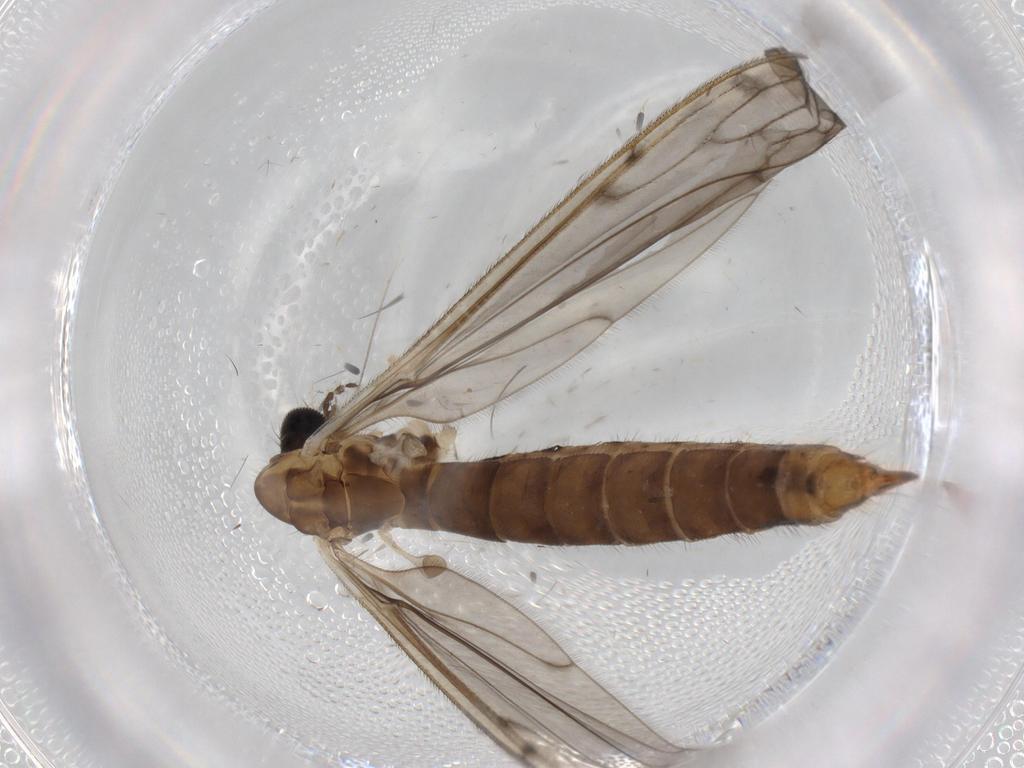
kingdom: Animalia
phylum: Arthropoda
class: Insecta
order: Diptera
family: Limoniidae
